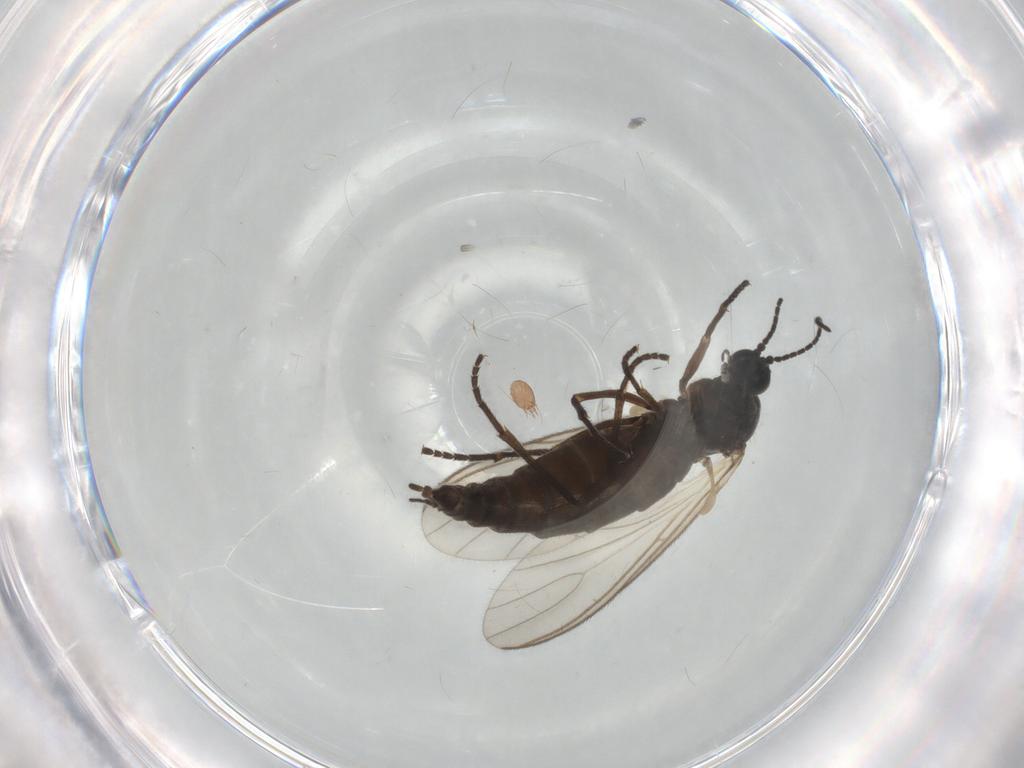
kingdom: Animalia
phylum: Arthropoda
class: Insecta
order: Diptera
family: Sciaridae
